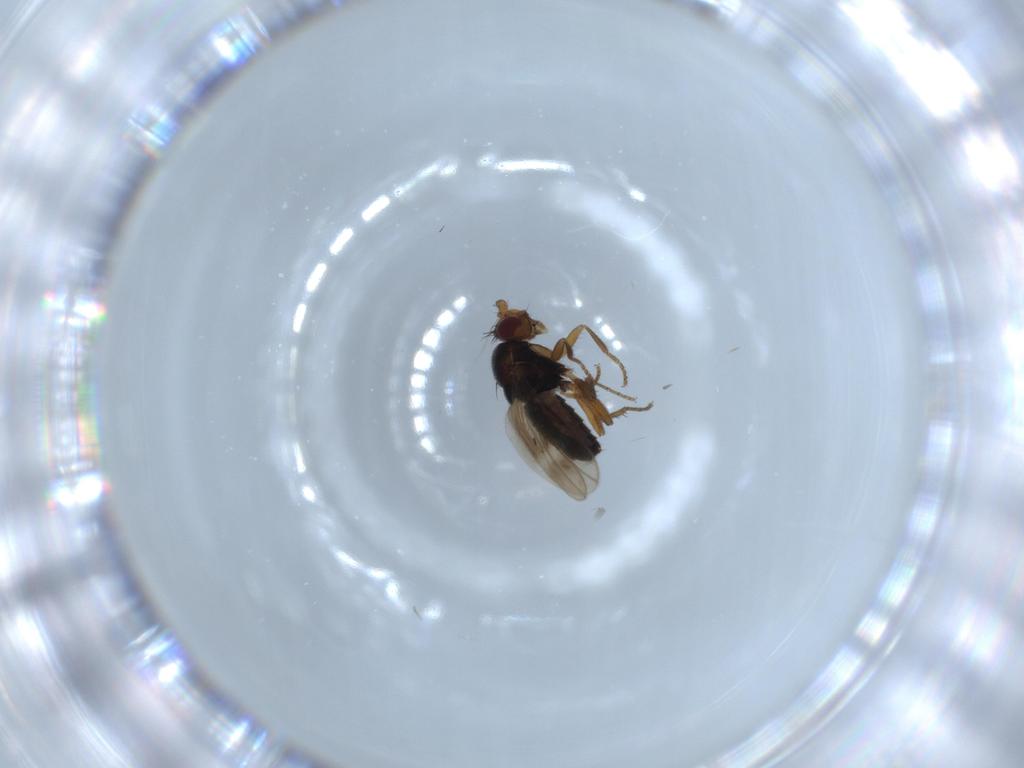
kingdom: Animalia
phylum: Arthropoda
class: Insecta
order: Diptera
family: Sphaeroceridae
